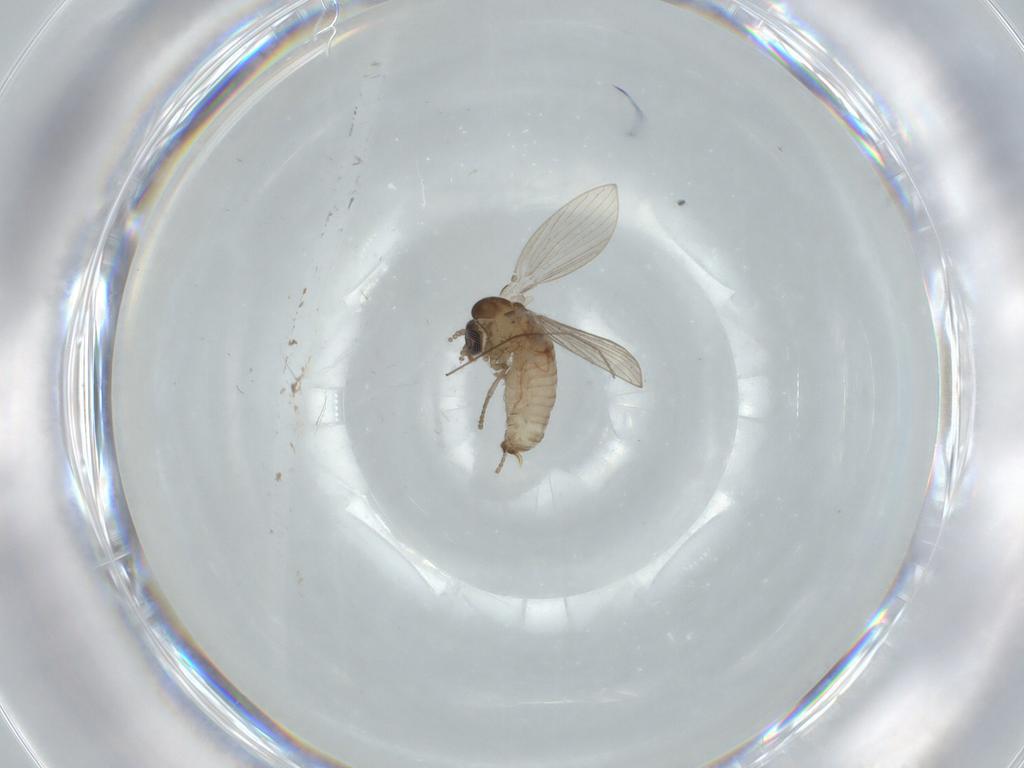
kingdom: Animalia
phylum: Arthropoda
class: Insecta
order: Diptera
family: Psychodidae
